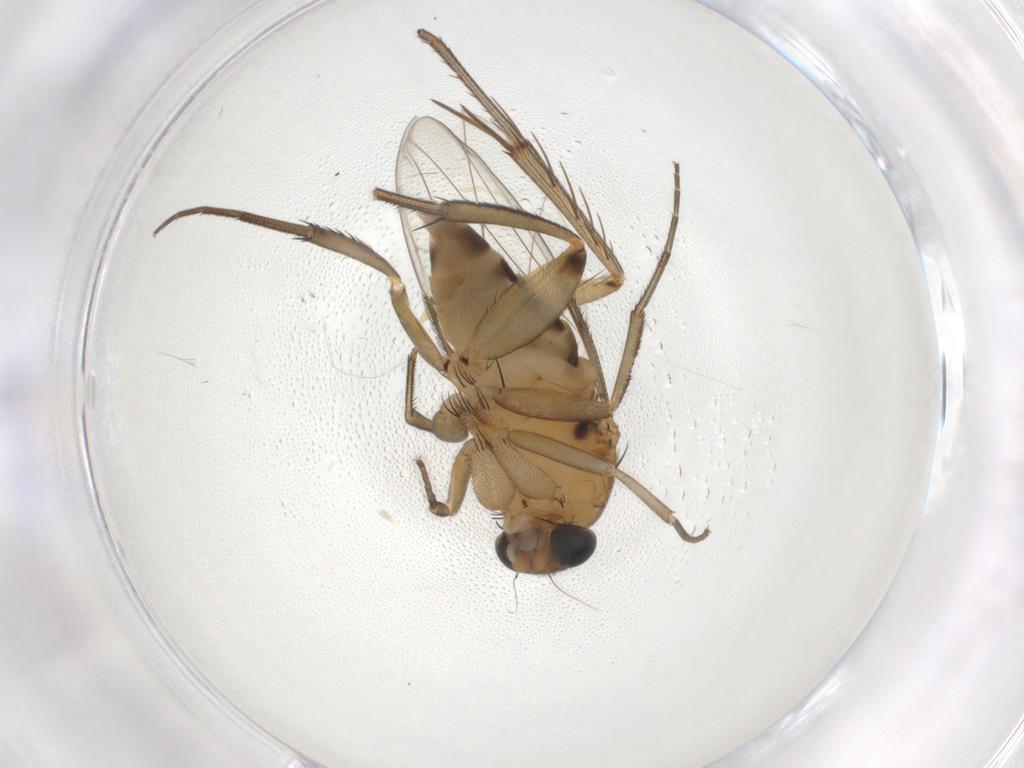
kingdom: Animalia
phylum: Arthropoda
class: Insecta
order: Diptera
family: Phoridae
